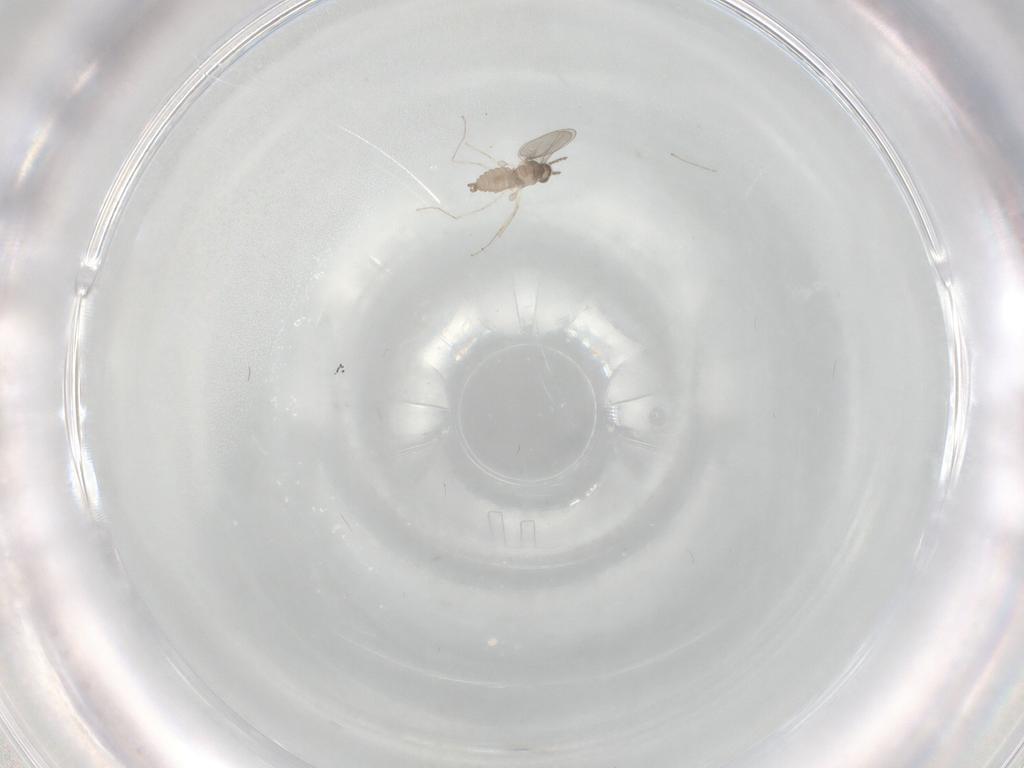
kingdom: Animalia
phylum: Arthropoda
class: Insecta
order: Diptera
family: Cecidomyiidae
